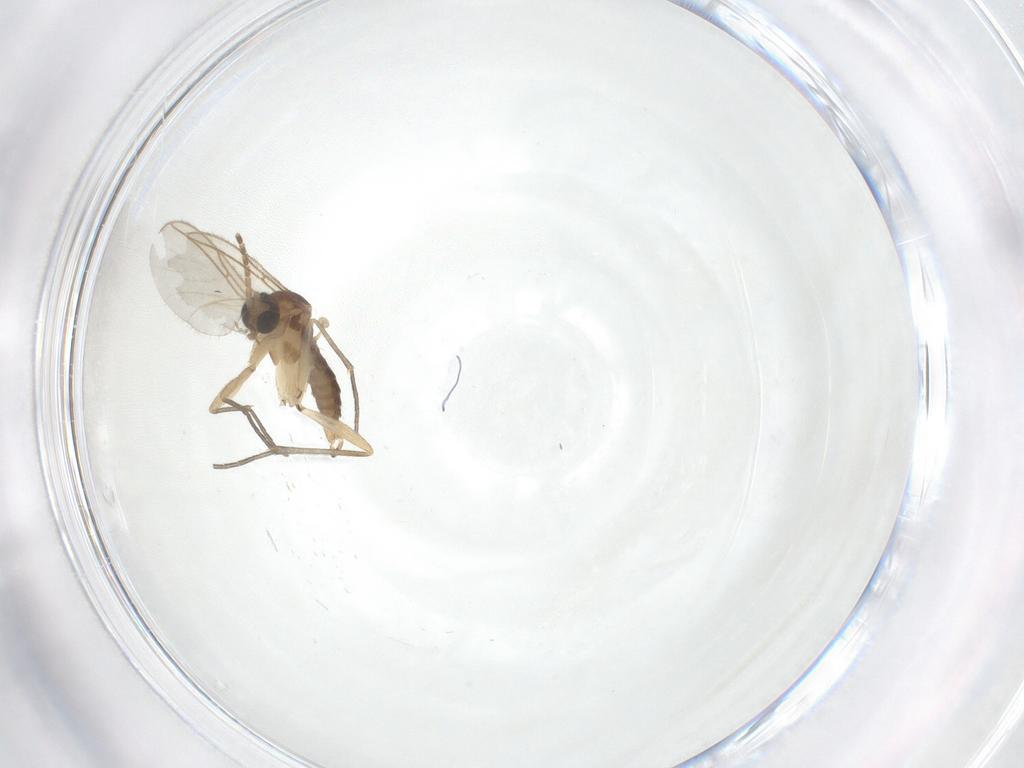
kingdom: Animalia
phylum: Arthropoda
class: Insecta
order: Diptera
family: Sciaridae
